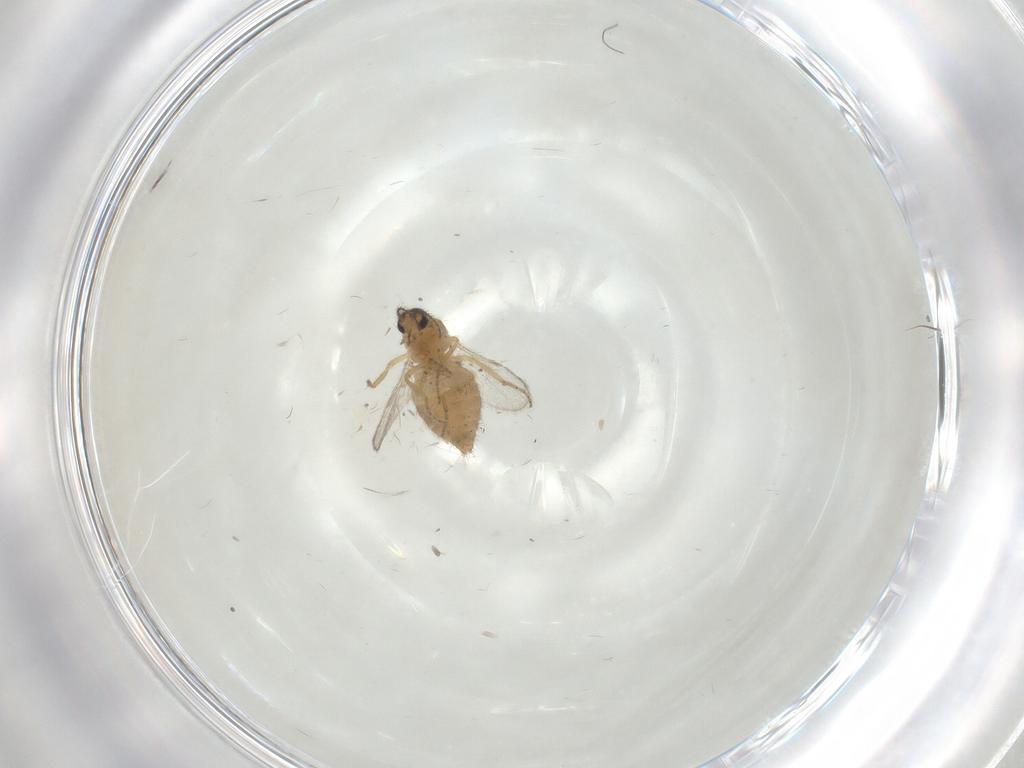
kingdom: Animalia
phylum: Arthropoda
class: Insecta
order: Diptera
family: Ceratopogonidae
